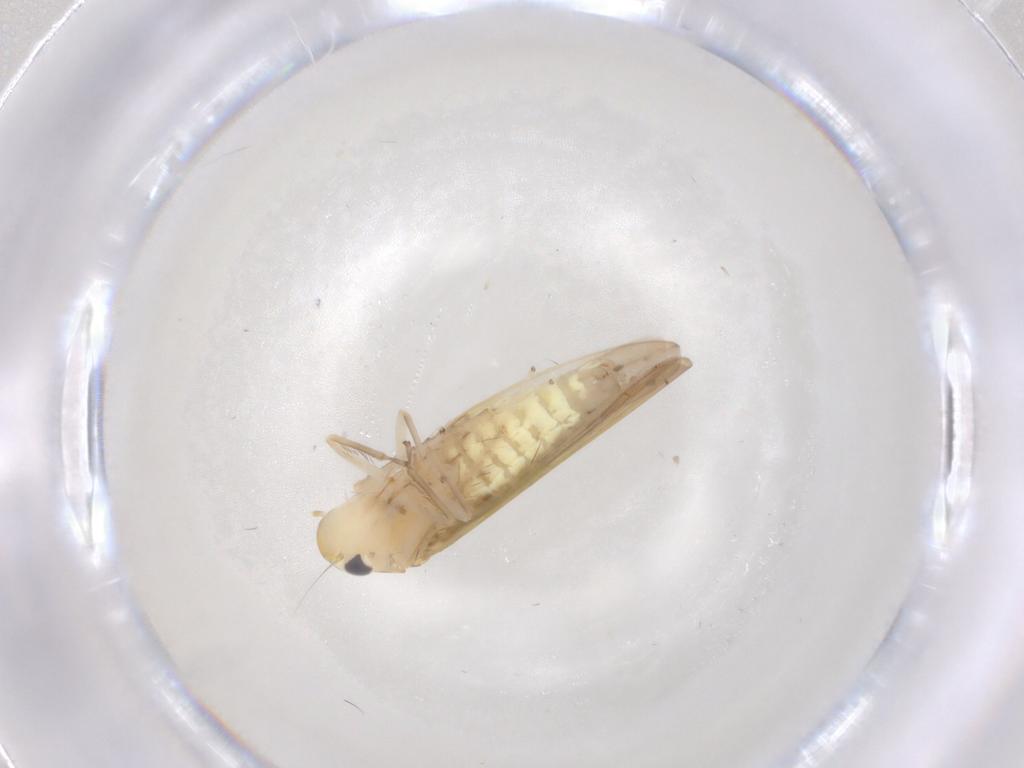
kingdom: Animalia
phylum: Arthropoda
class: Insecta
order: Hemiptera
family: Cicadellidae
